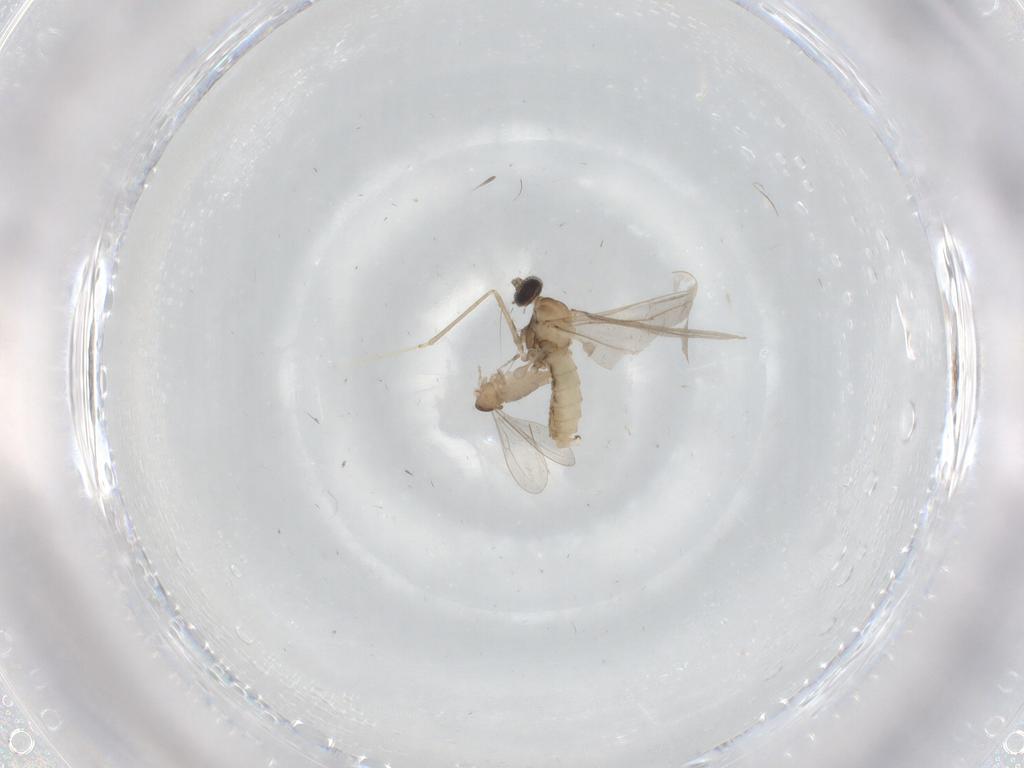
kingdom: Animalia
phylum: Arthropoda
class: Insecta
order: Diptera
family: Cecidomyiidae
